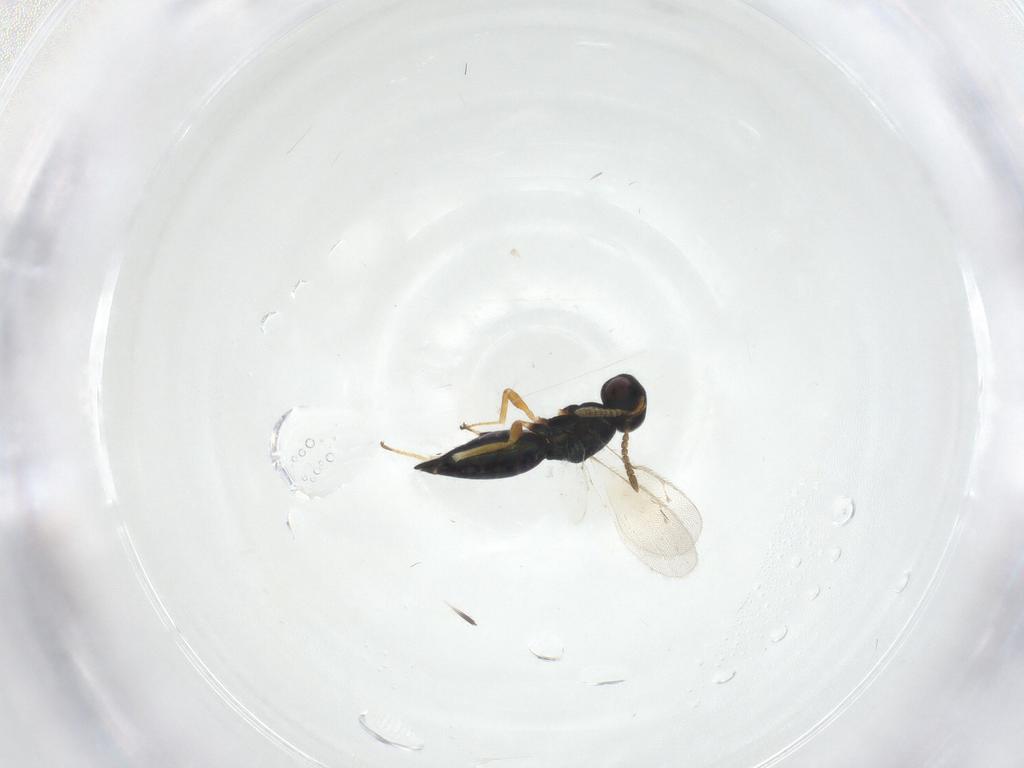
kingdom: Animalia
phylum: Arthropoda
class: Insecta
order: Hymenoptera
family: Pteromalidae
